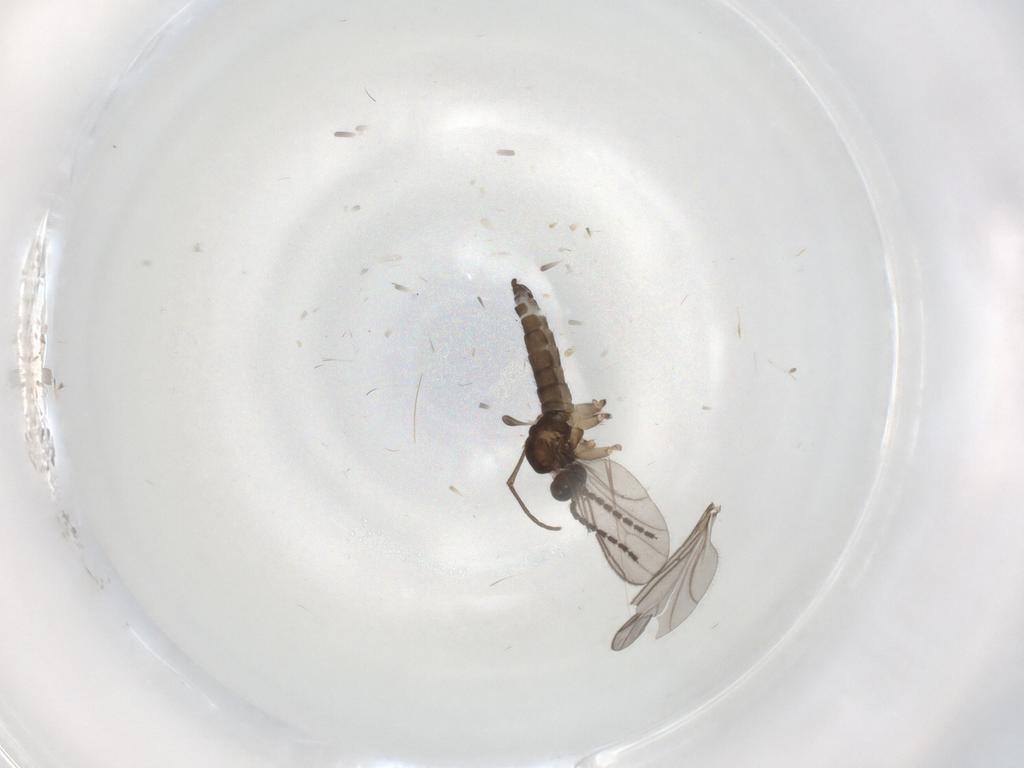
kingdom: Animalia
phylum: Arthropoda
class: Insecta
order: Diptera
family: Sciaridae
